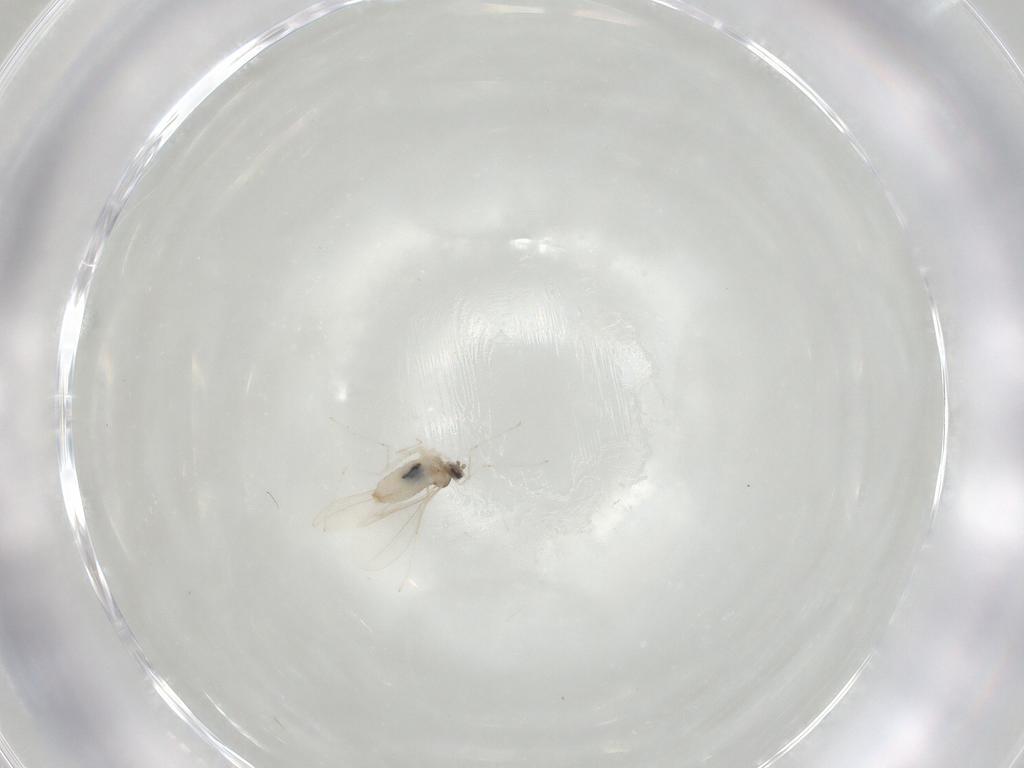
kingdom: Animalia
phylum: Arthropoda
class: Insecta
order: Diptera
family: Cecidomyiidae
